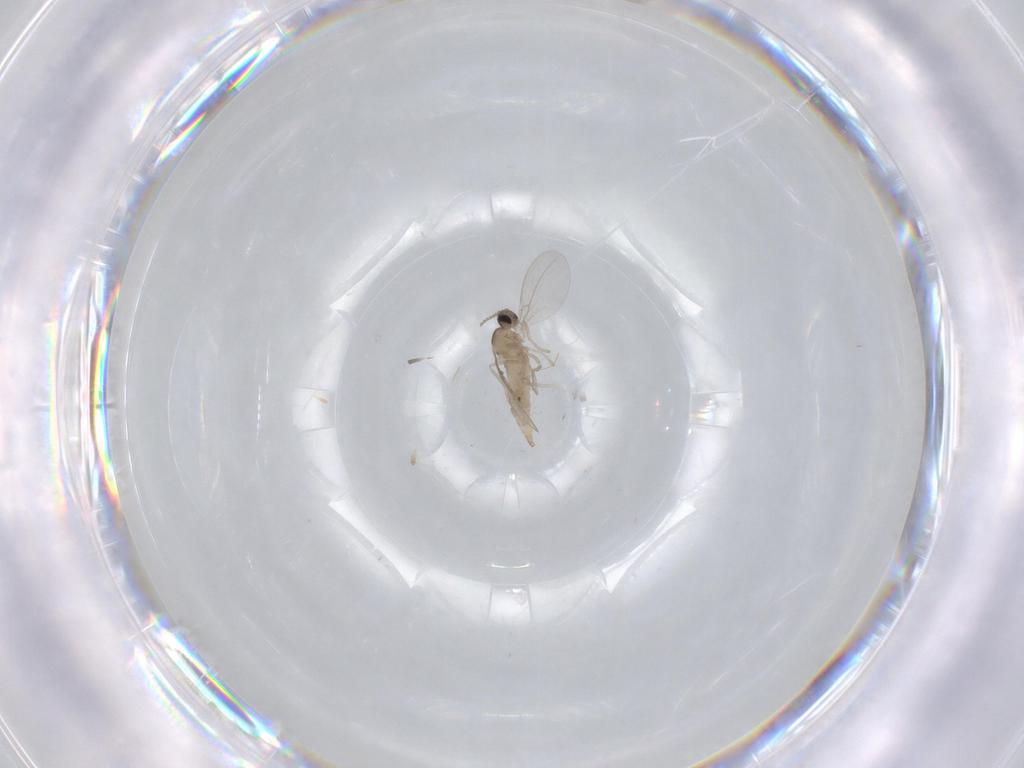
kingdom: Animalia
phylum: Arthropoda
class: Insecta
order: Diptera
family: Cecidomyiidae
